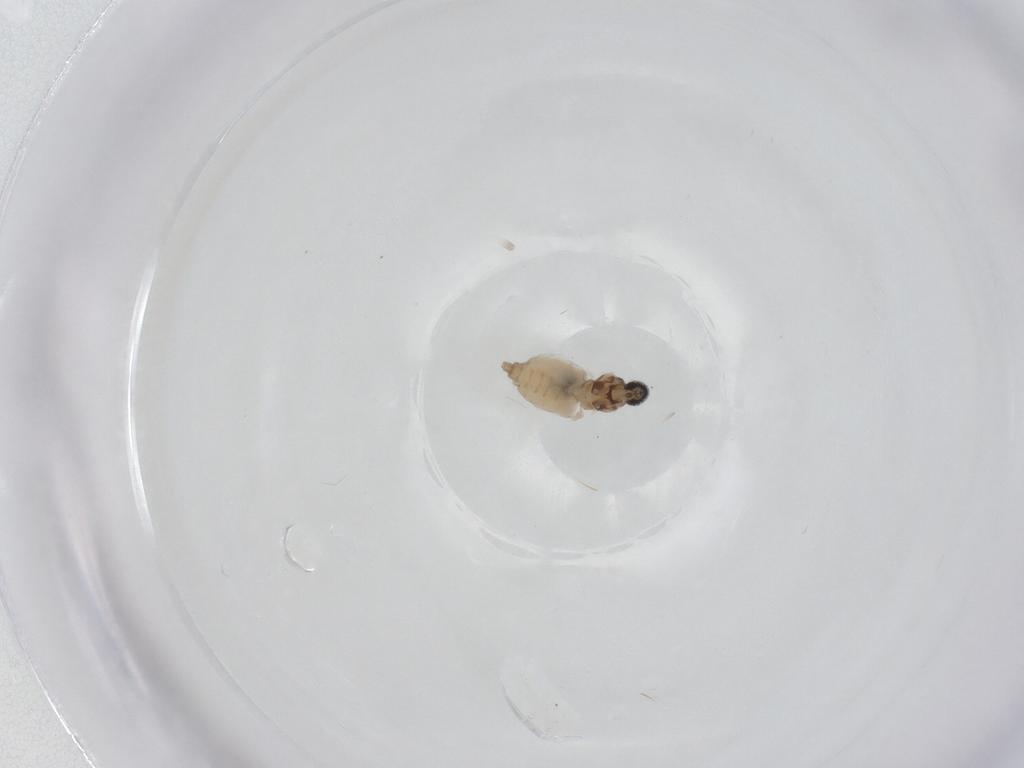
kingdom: Animalia
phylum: Arthropoda
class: Insecta
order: Diptera
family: Cecidomyiidae
